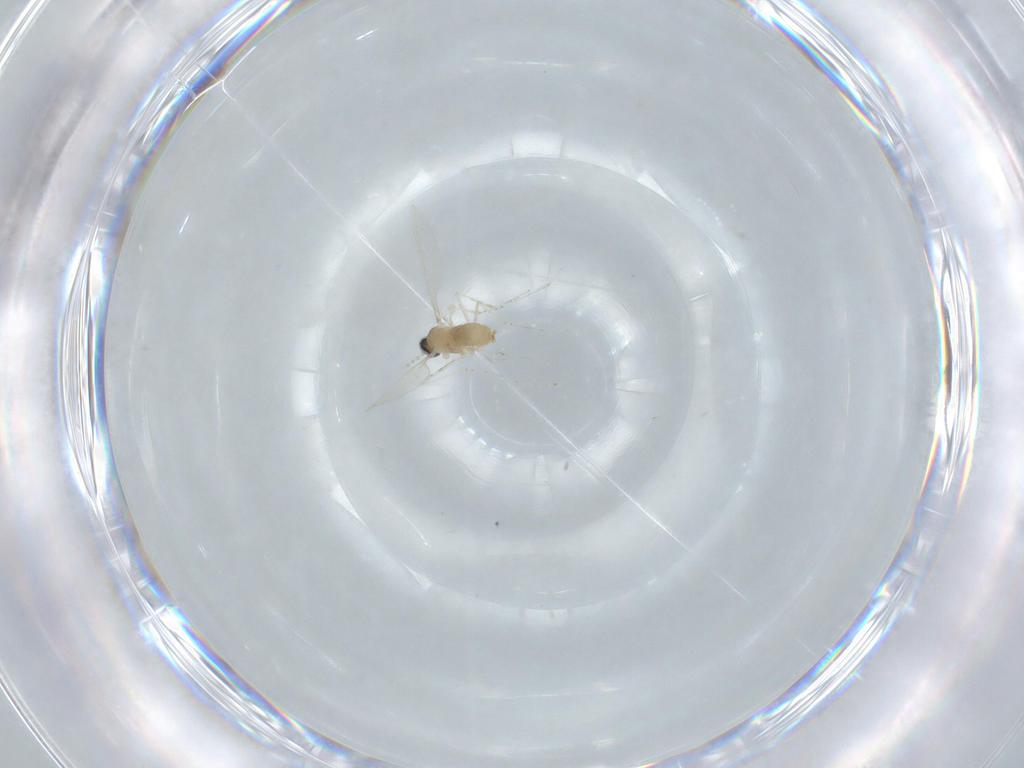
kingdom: Animalia
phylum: Arthropoda
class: Insecta
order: Diptera
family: Cecidomyiidae
